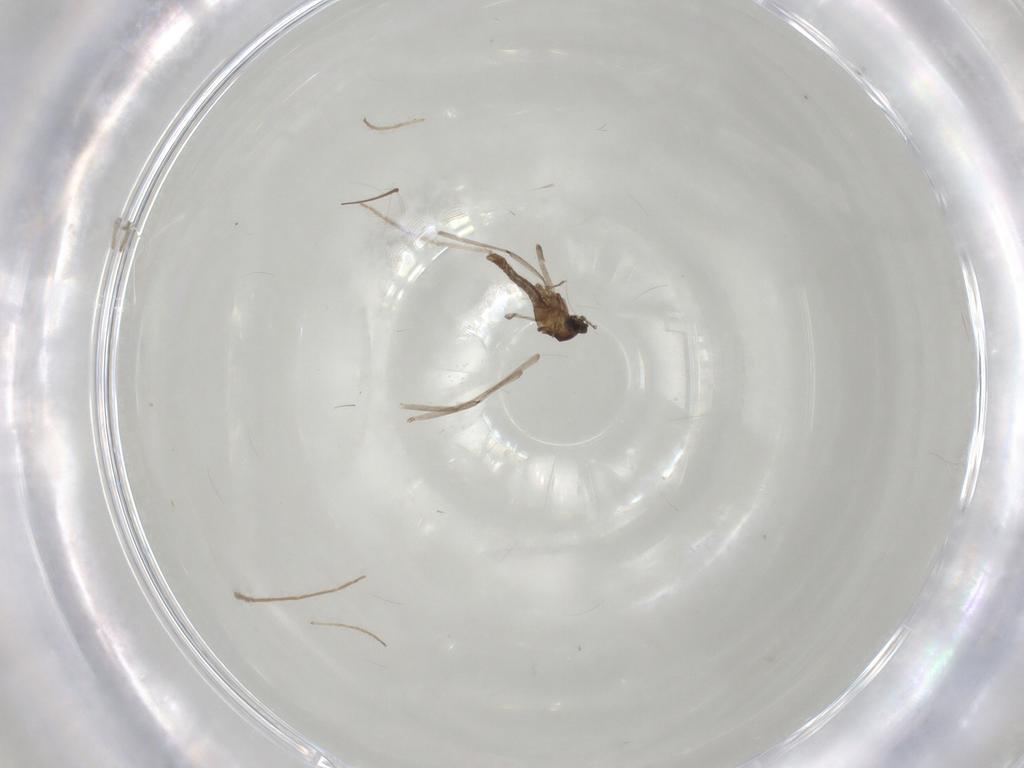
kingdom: Animalia
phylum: Arthropoda
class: Insecta
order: Diptera
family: Cecidomyiidae
